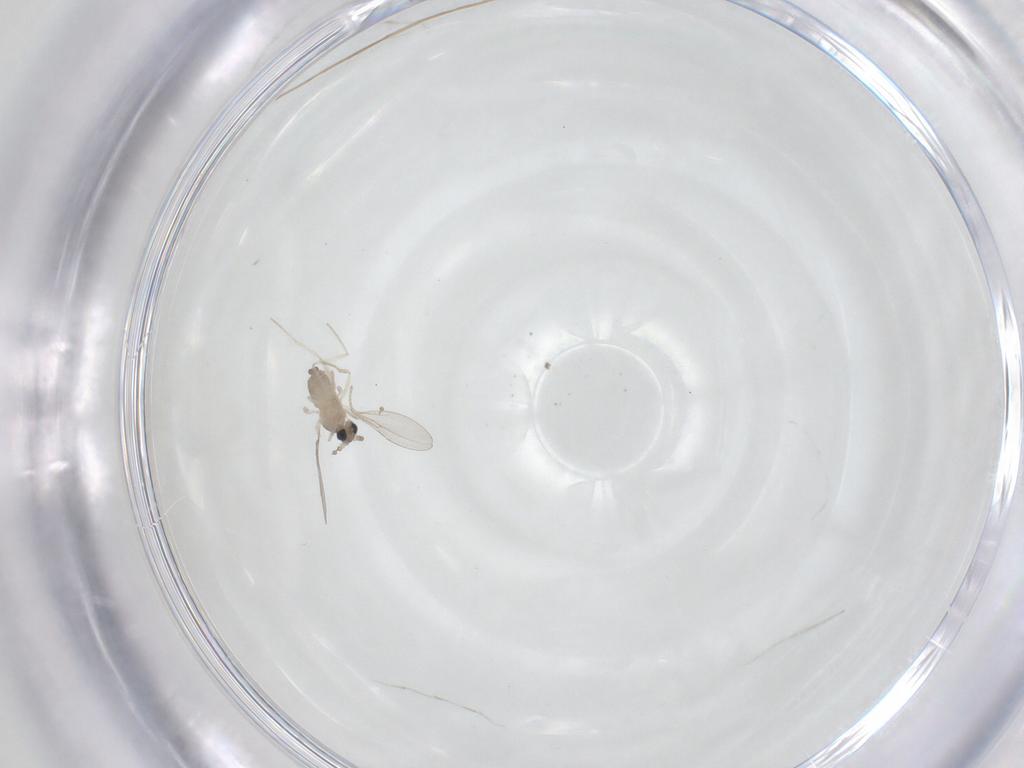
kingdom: Animalia
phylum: Arthropoda
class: Insecta
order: Diptera
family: Cecidomyiidae
